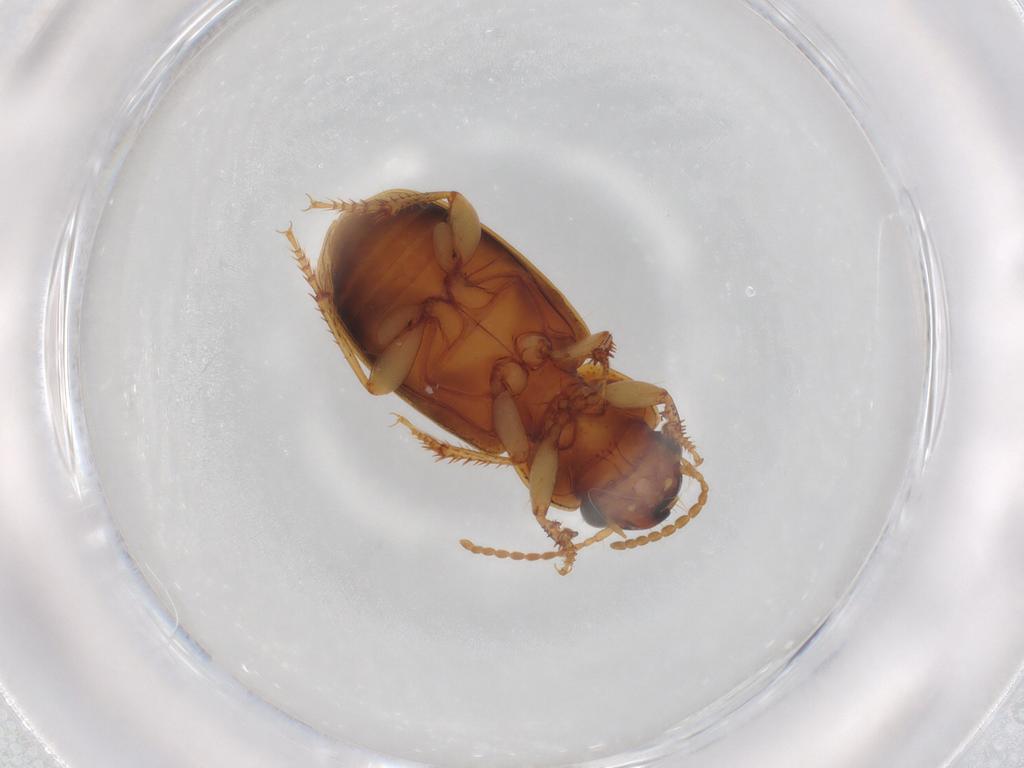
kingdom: Animalia
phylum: Arthropoda
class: Insecta
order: Coleoptera
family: Carabidae
